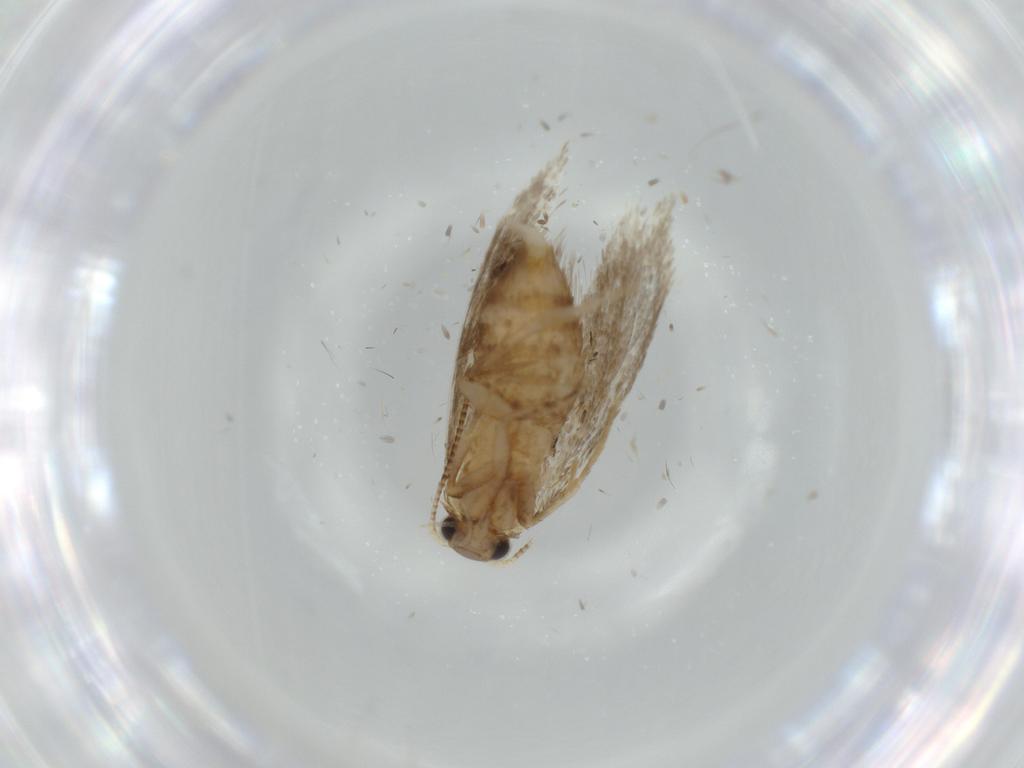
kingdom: Animalia
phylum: Arthropoda
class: Insecta
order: Lepidoptera
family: Tineidae
